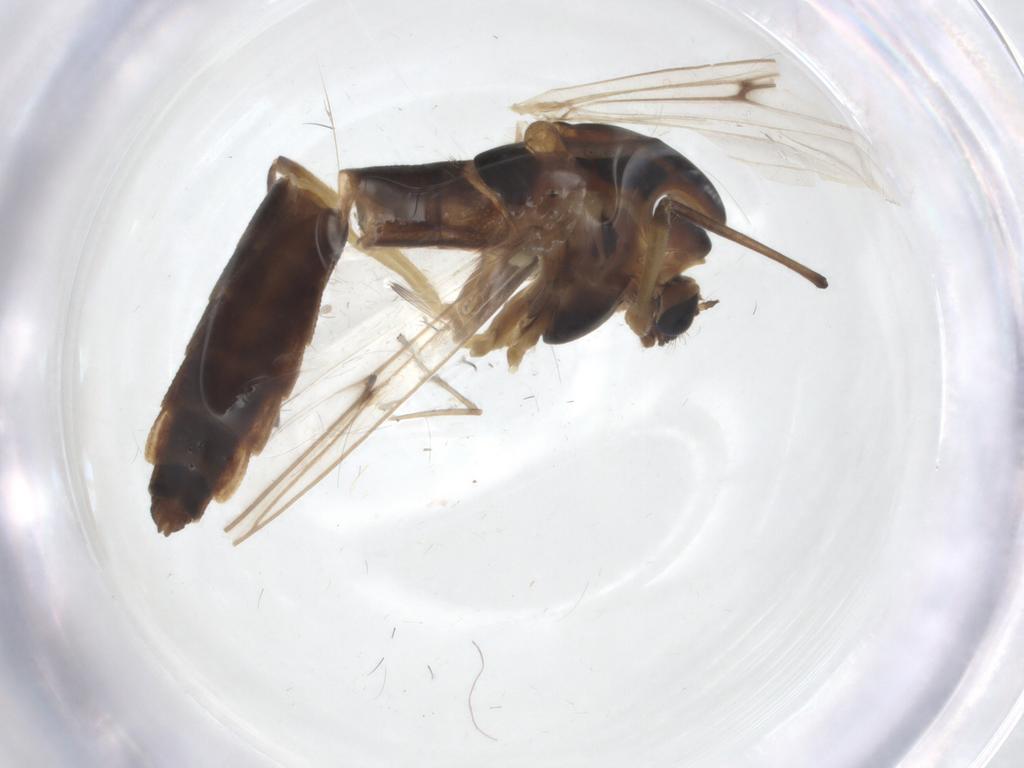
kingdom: Animalia
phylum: Arthropoda
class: Insecta
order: Diptera
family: Chironomidae
